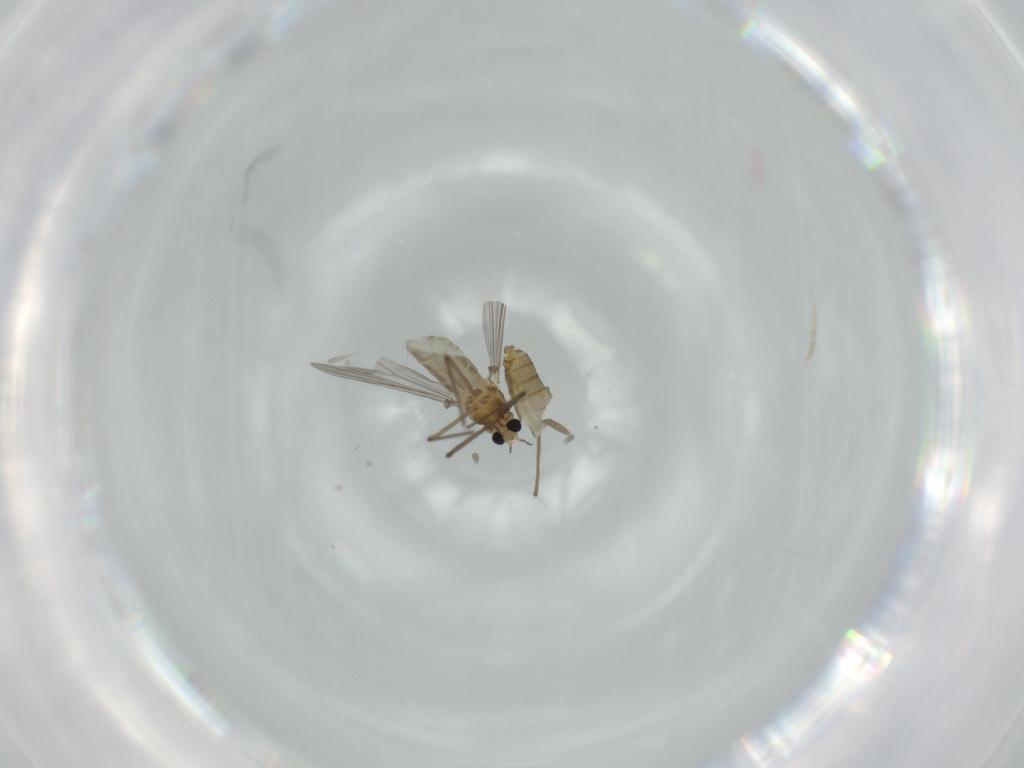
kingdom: Animalia
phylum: Arthropoda
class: Insecta
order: Diptera
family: Chironomidae
